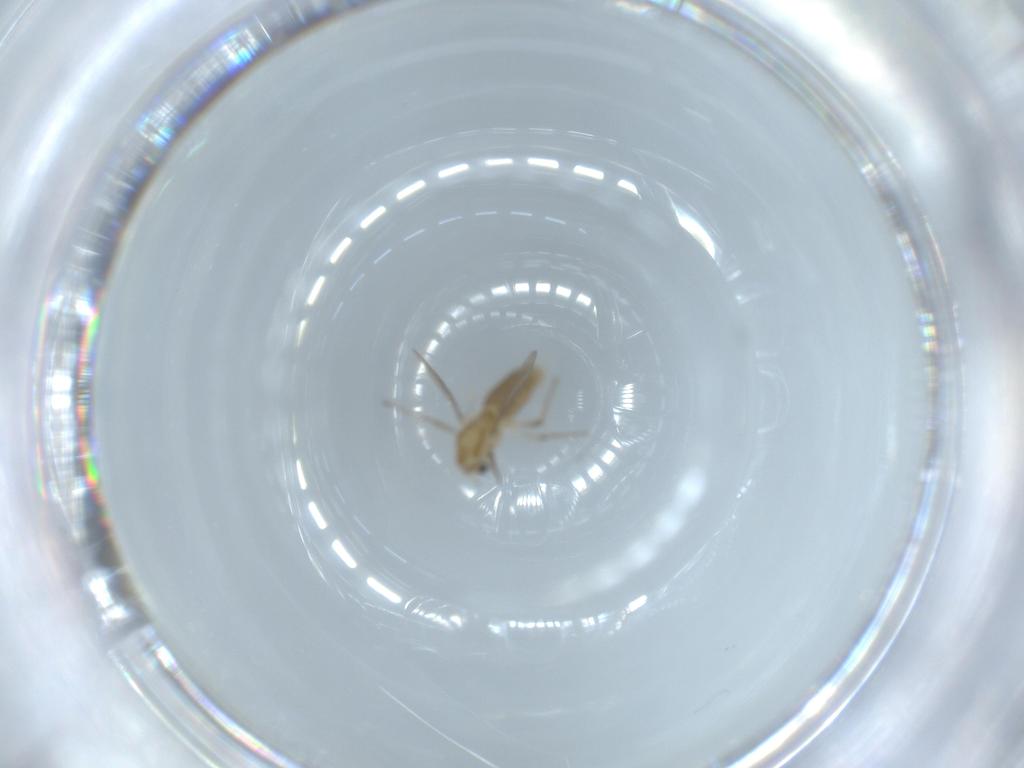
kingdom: Animalia
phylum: Arthropoda
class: Insecta
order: Diptera
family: Chironomidae
